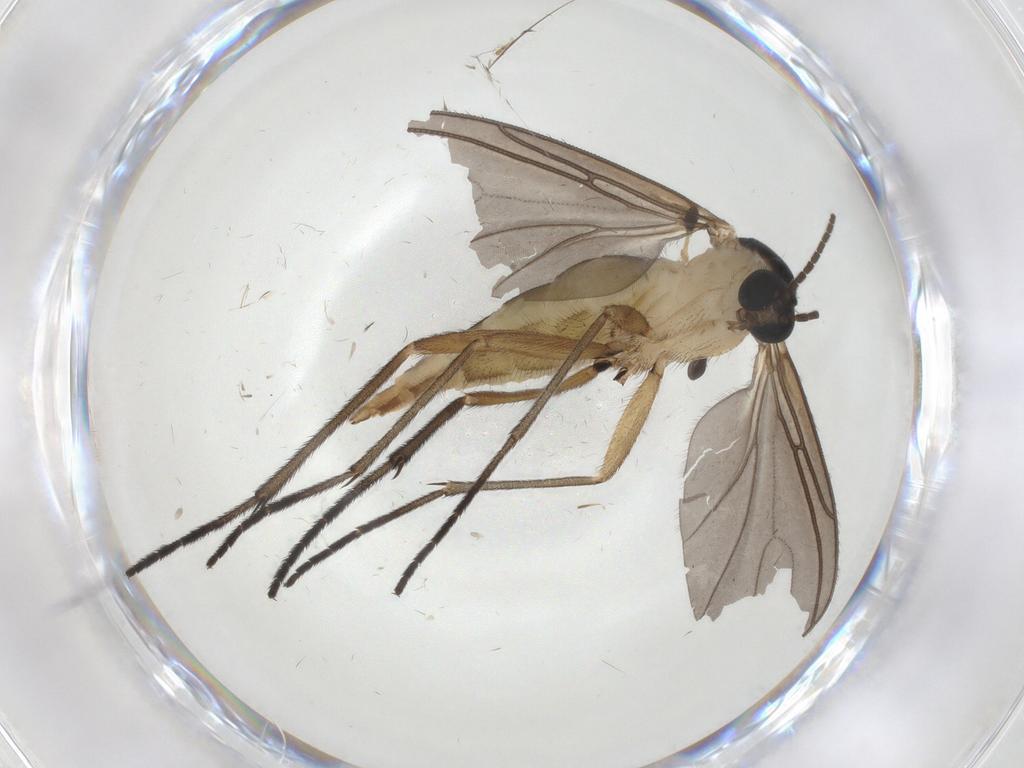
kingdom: Animalia
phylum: Arthropoda
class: Insecta
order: Diptera
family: Sciaridae
